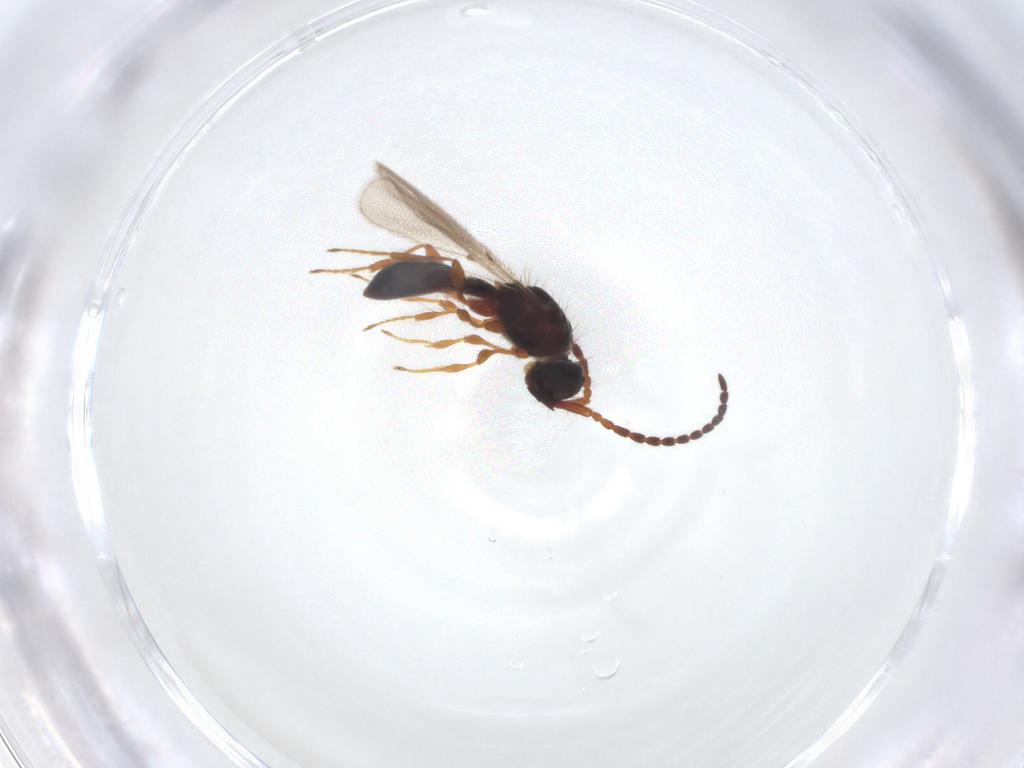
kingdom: Animalia
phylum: Arthropoda
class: Insecta
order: Hymenoptera
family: Diapriidae
